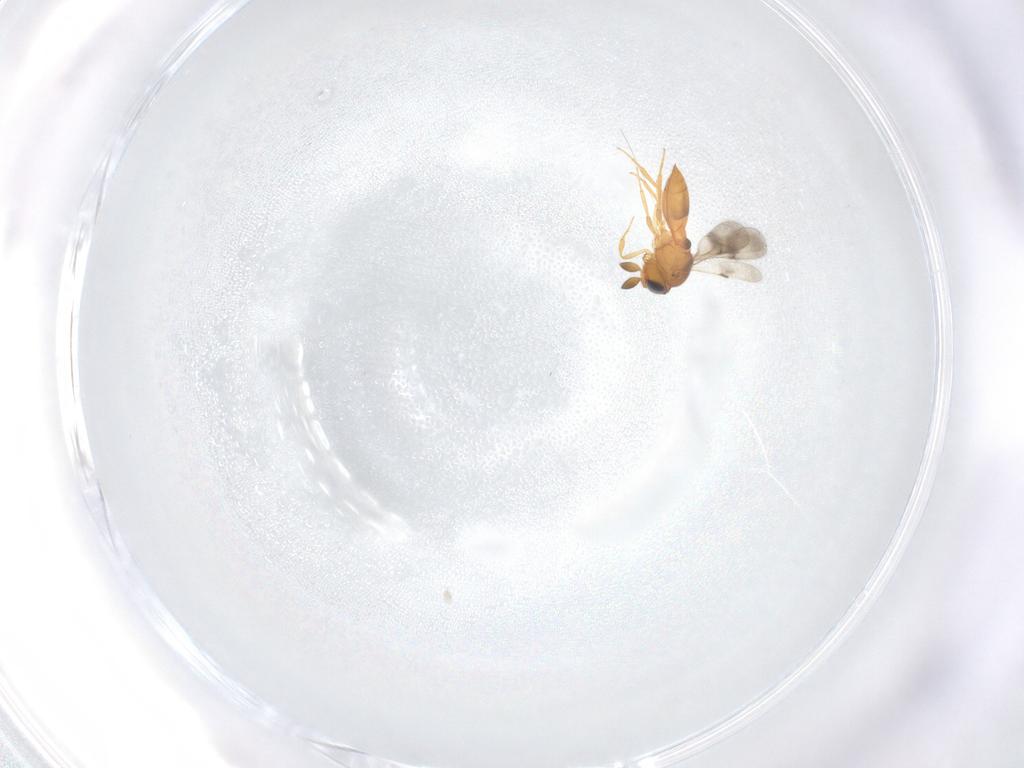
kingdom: Animalia
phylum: Arthropoda
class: Insecta
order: Hymenoptera
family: Scelionidae
